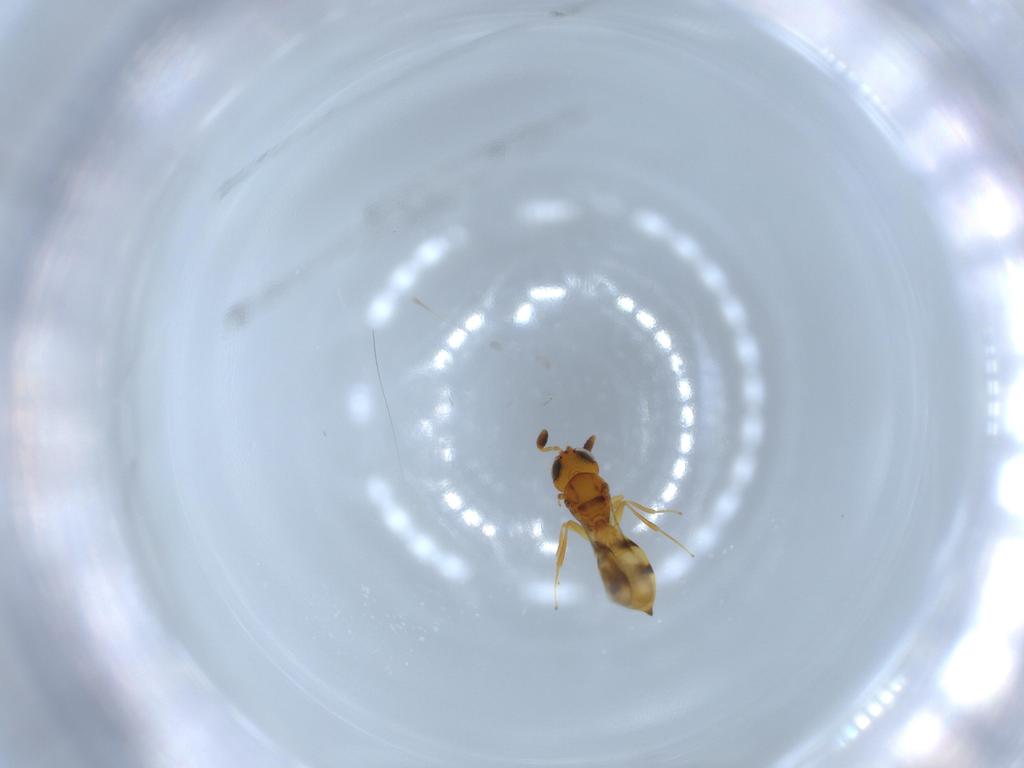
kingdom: Animalia
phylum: Arthropoda
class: Insecta
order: Hymenoptera
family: Scelionidae
